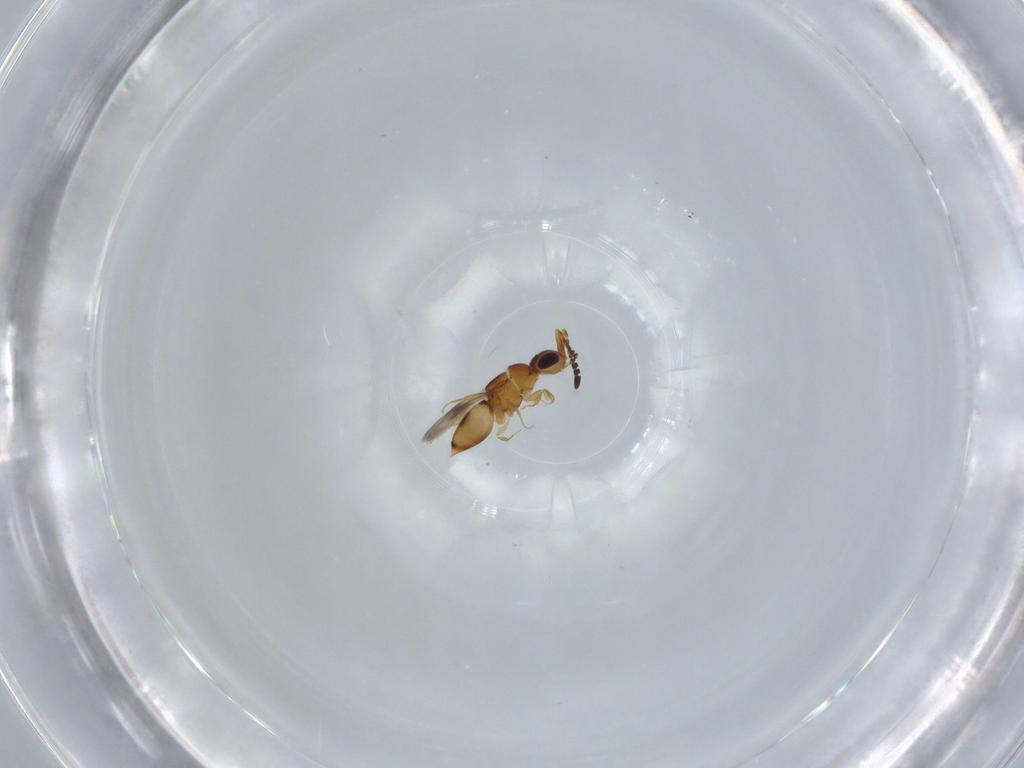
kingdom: Animalia
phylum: Arthropoda
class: Insecta
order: Hymenoptera
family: Ceraphronidae
